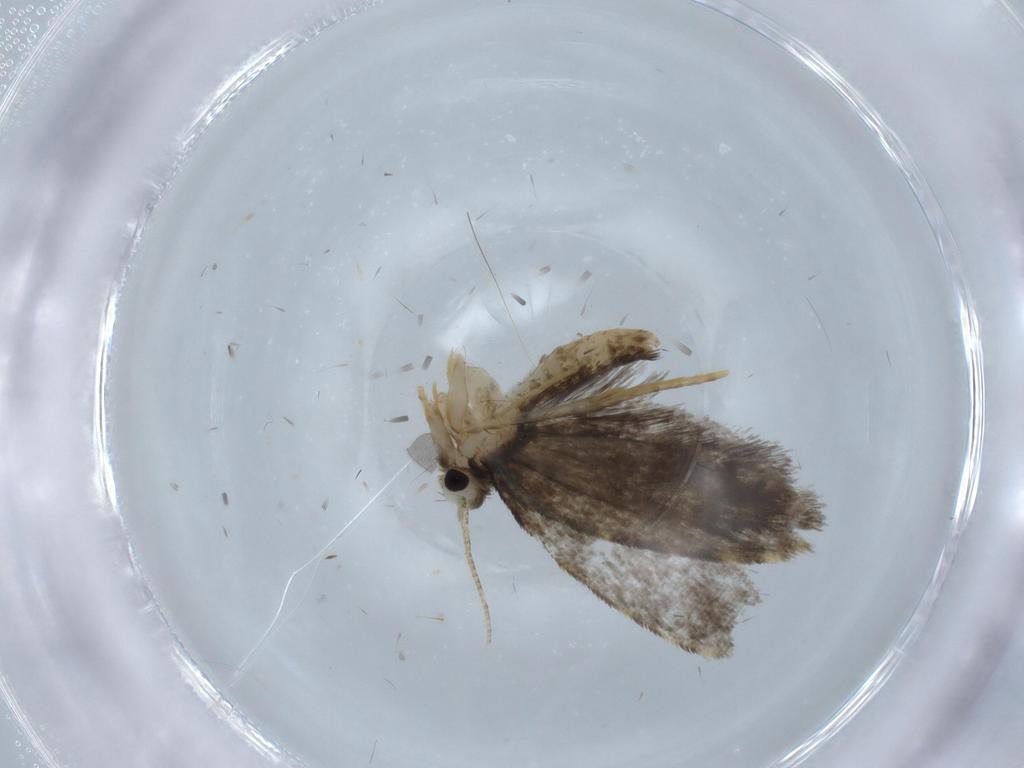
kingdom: Animalia
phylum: Arthropoda
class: Insecta
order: Lepidoptera
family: Psychidae
